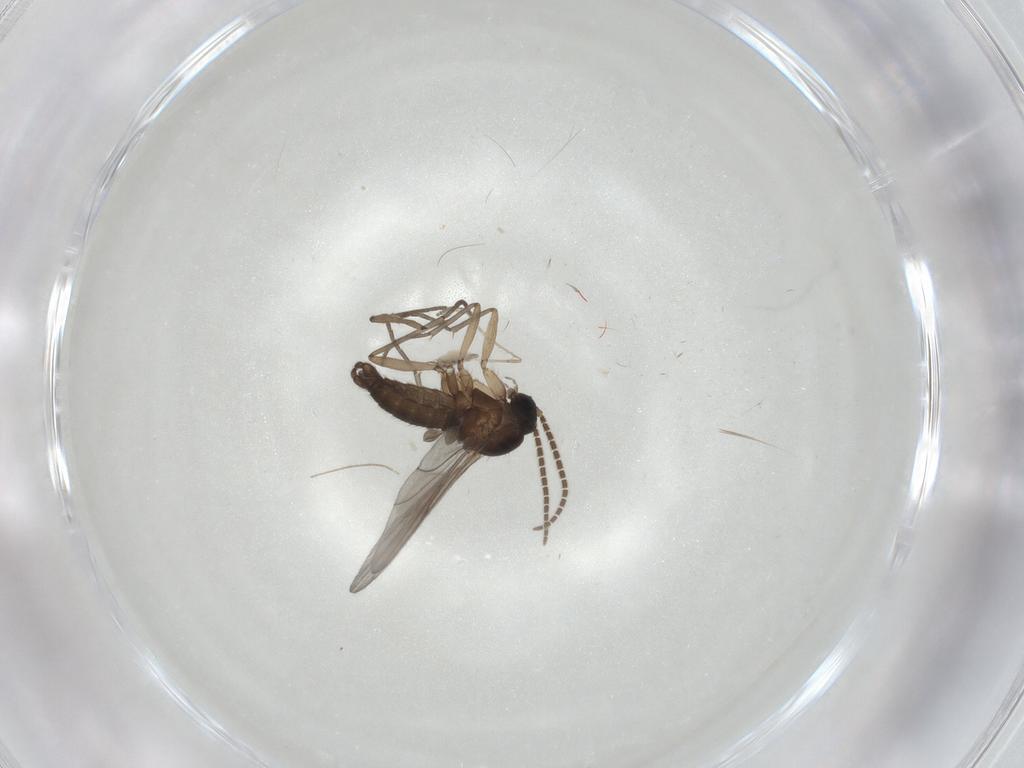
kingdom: Animalia
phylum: Arthropoda
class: Insecta
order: Diptera
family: Sciaridae
